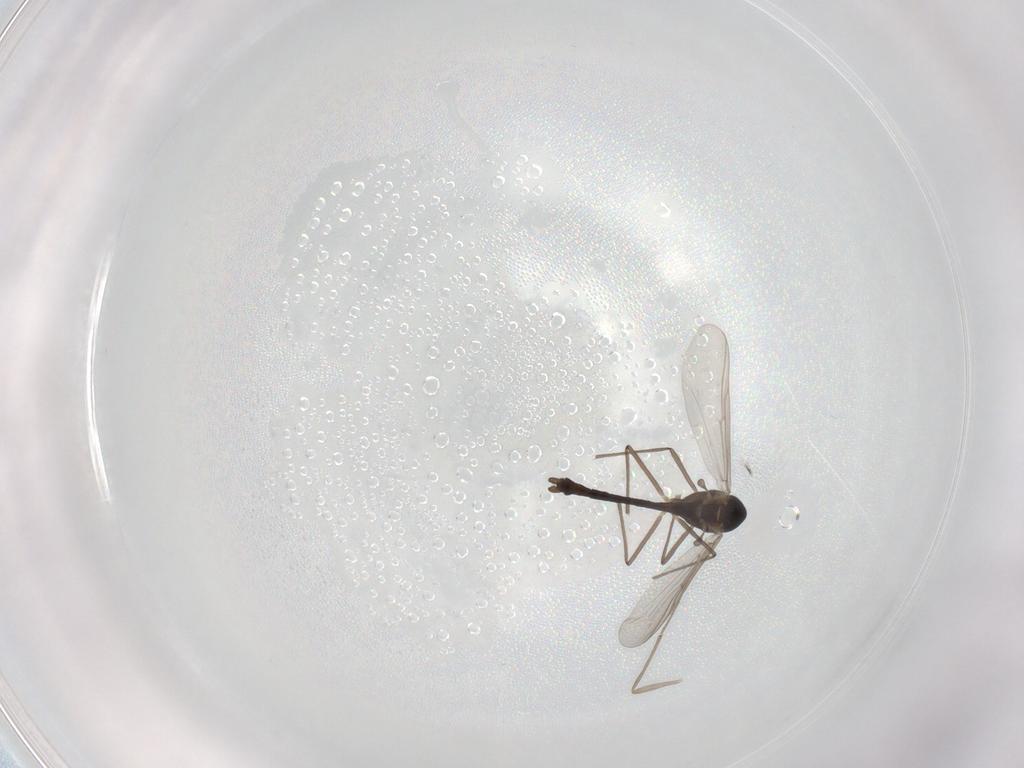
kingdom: Animalia
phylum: Arthropoda
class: Insecta
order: Diptera
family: Chironomidae
